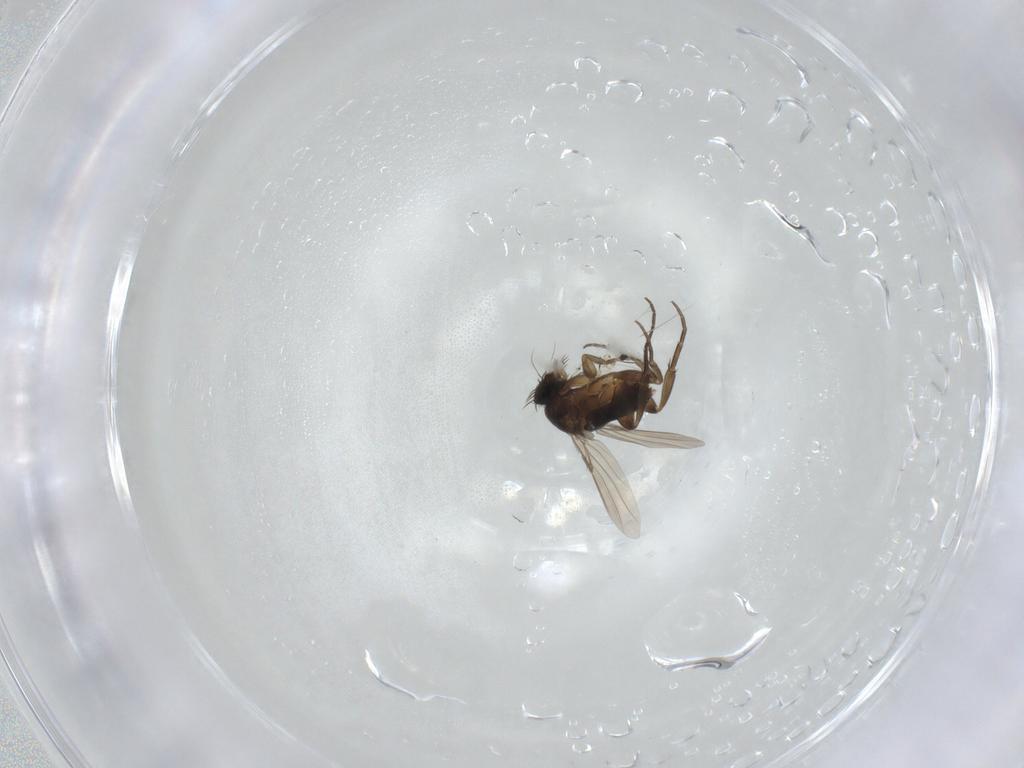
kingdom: Animalia
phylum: Arthropoda
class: Insecta
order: Diptera
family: Phoridae
